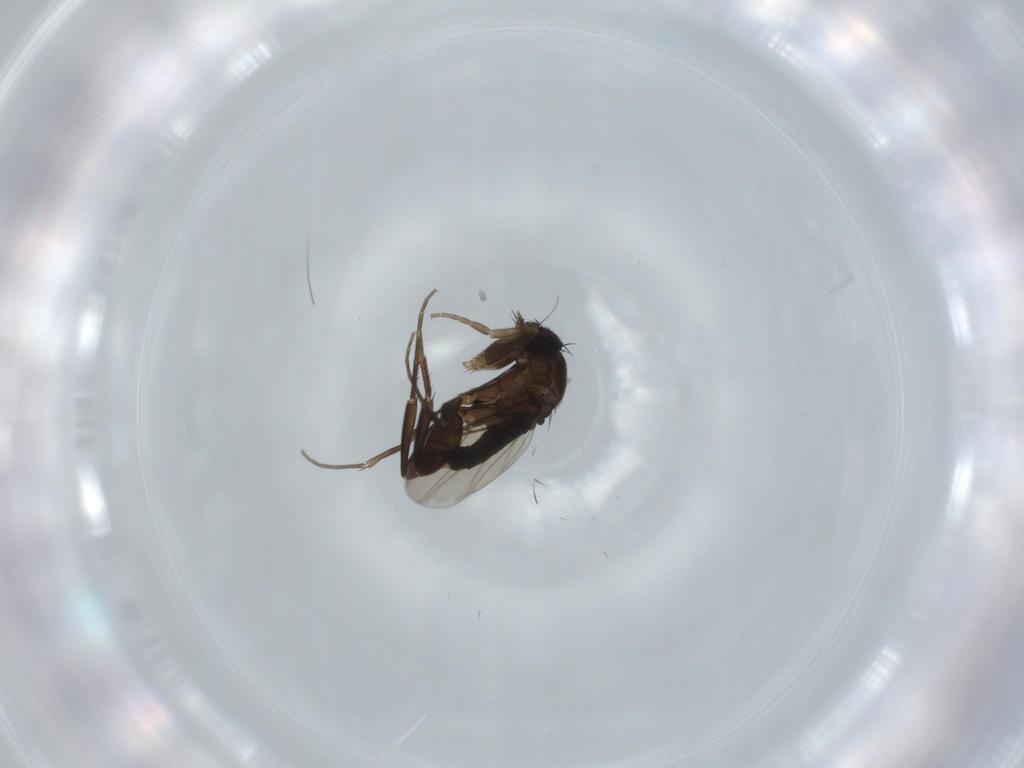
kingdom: Animalia
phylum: Arthropoda
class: Insecta
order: Diptera
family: Phoridae
